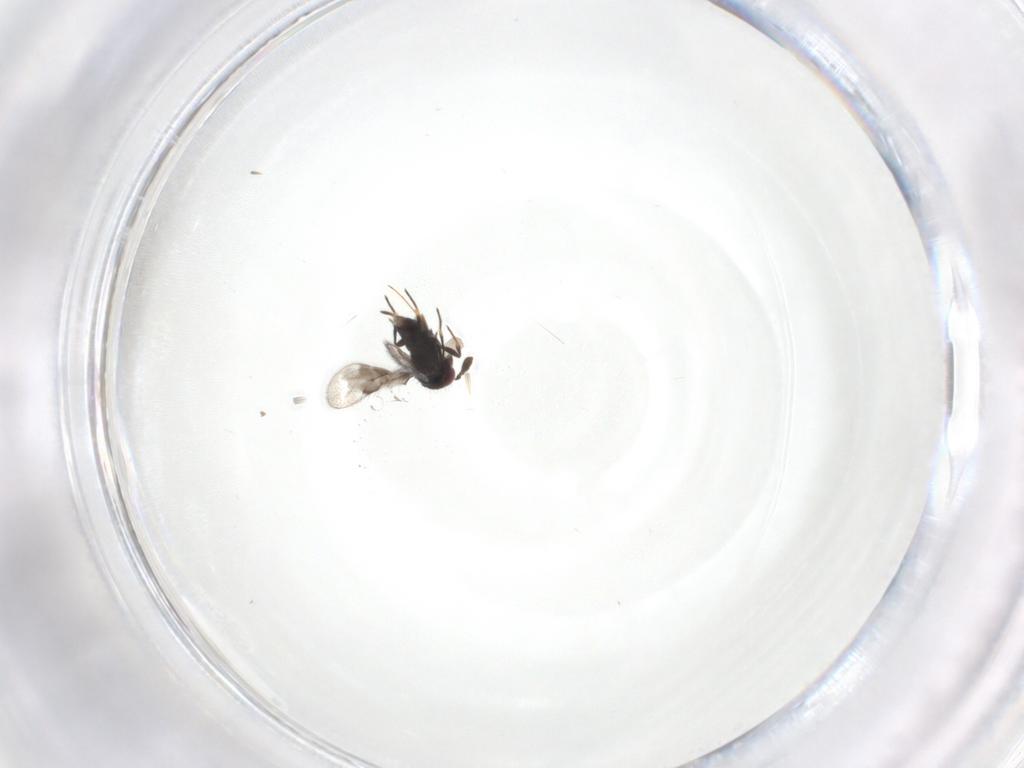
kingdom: Animalia
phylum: Arthropoda
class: Insecta
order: Hymenoptera
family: Eulophidae
